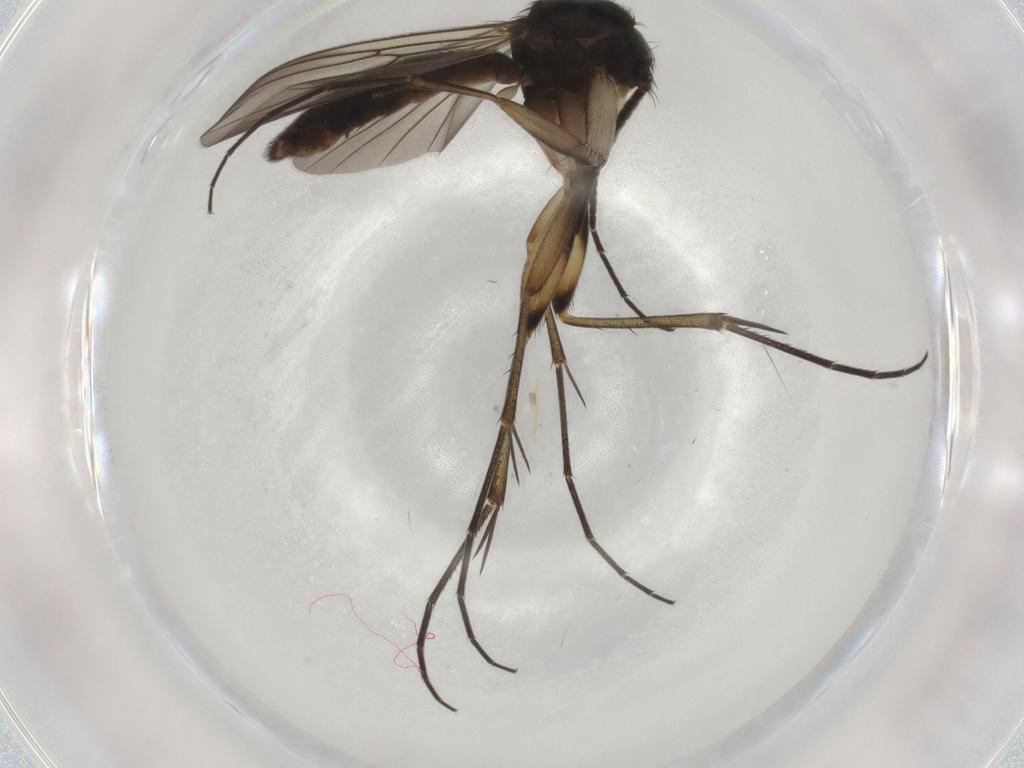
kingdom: Animalia
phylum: Arthropoda
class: Insecta
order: Diptera
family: Mycetophilidae
